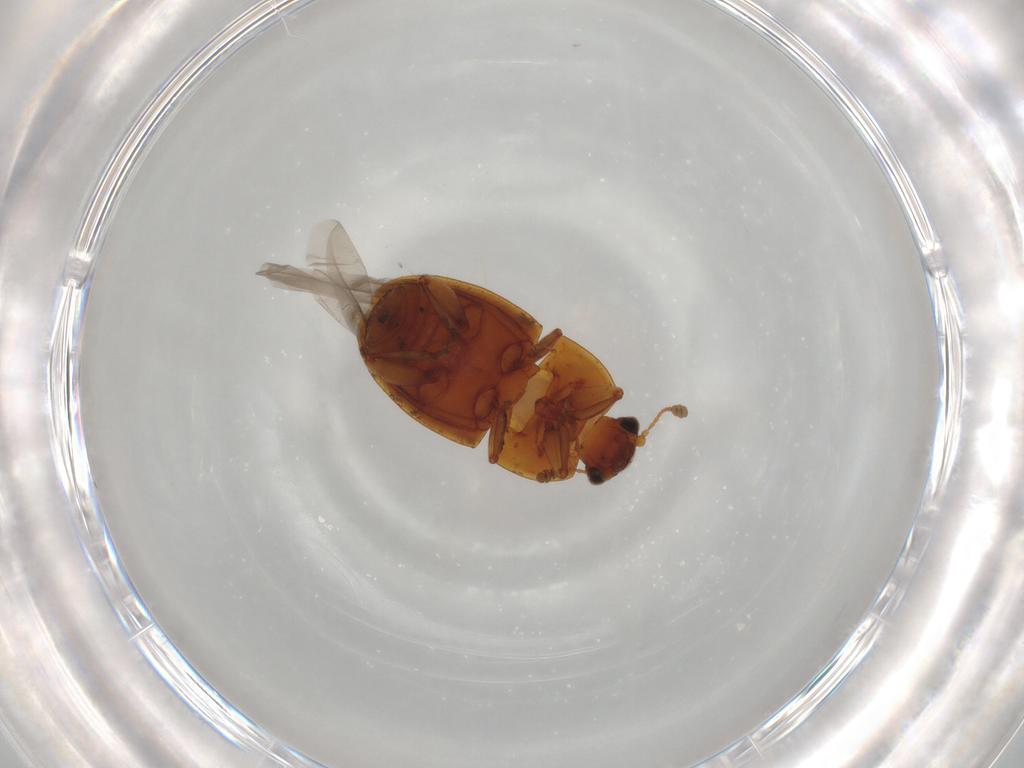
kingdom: Animalia
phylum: Arthropoda
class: Insecta
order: Coleoptera
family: Nitidulidae
